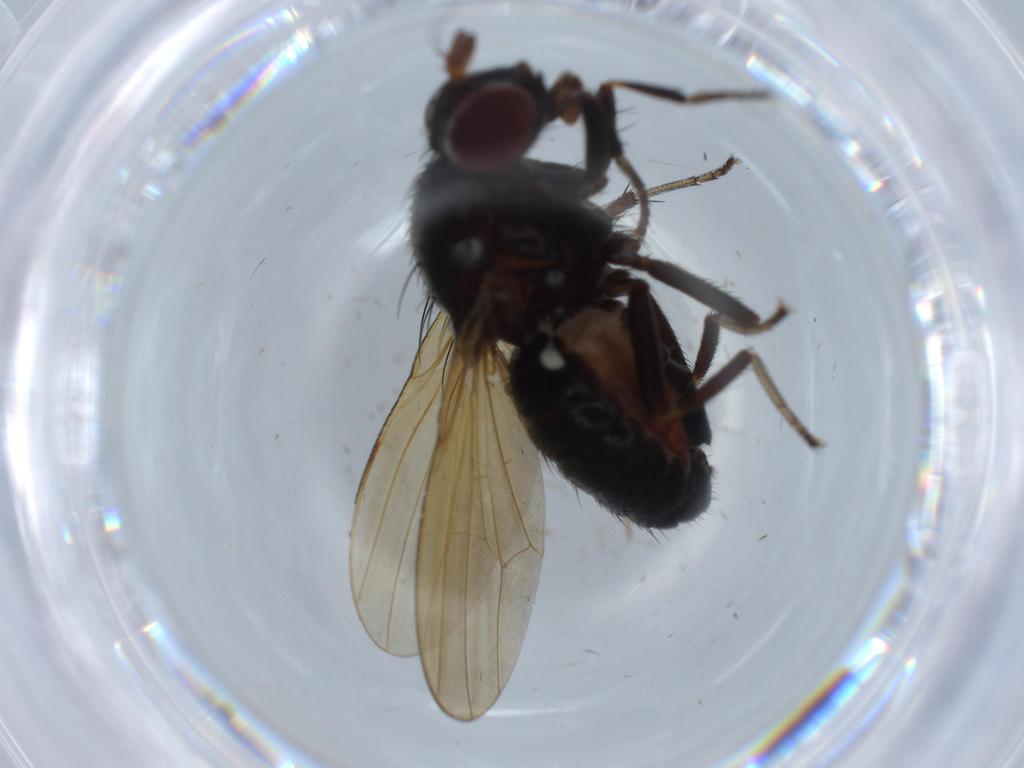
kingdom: Animalia
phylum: Arthropoda
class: Insecta
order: Diptera
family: Lauxaniidae
